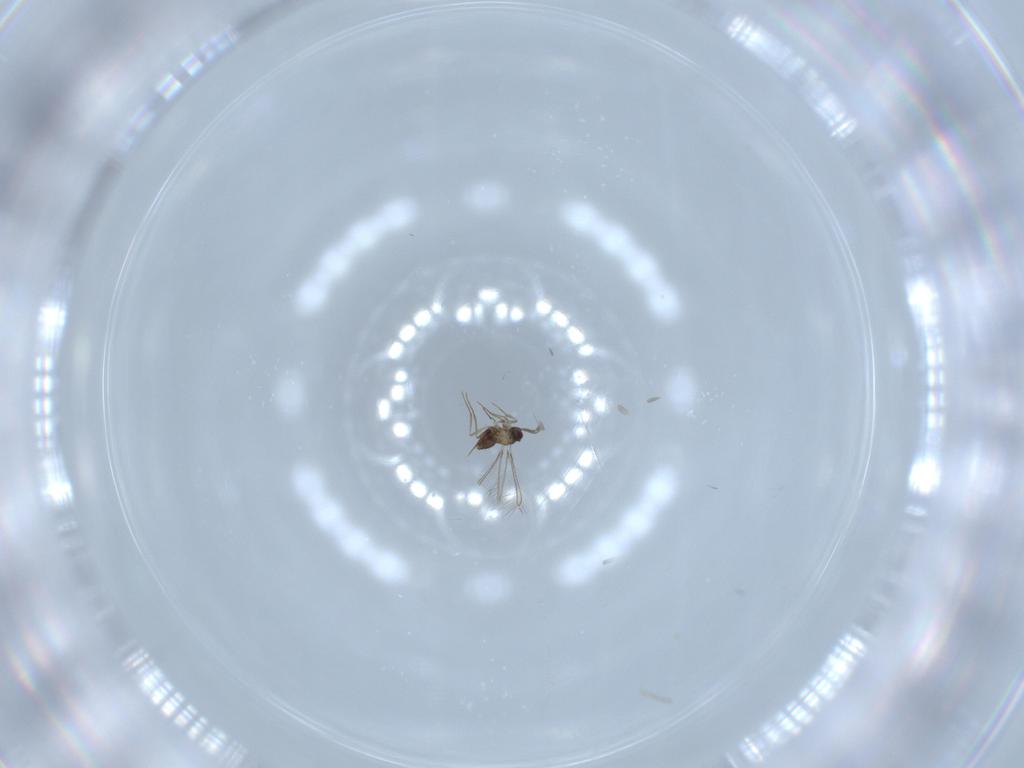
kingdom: Animalia
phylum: Arthropoda
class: Insecta
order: Hymenoptera
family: Mymaridae
